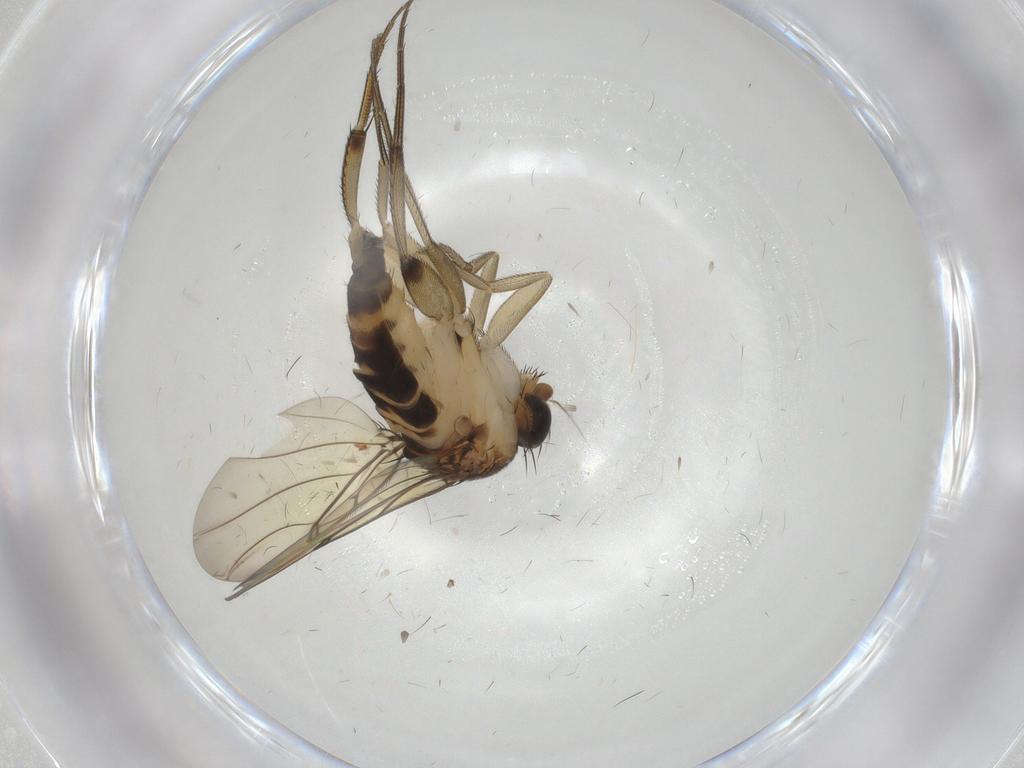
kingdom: Animalia
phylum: Arthropoda
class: Insecta
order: Diptera
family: Phoridae
